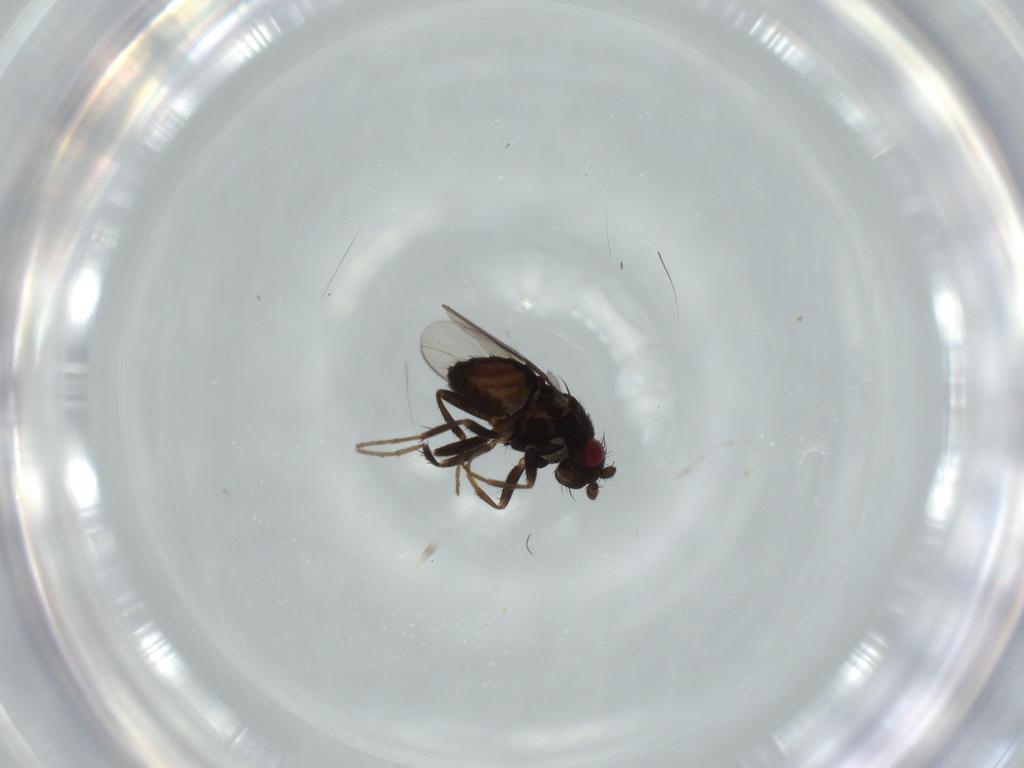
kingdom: Animalia
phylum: Arthropoda
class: Insecta
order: Diptera
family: Sphaeroceridae
